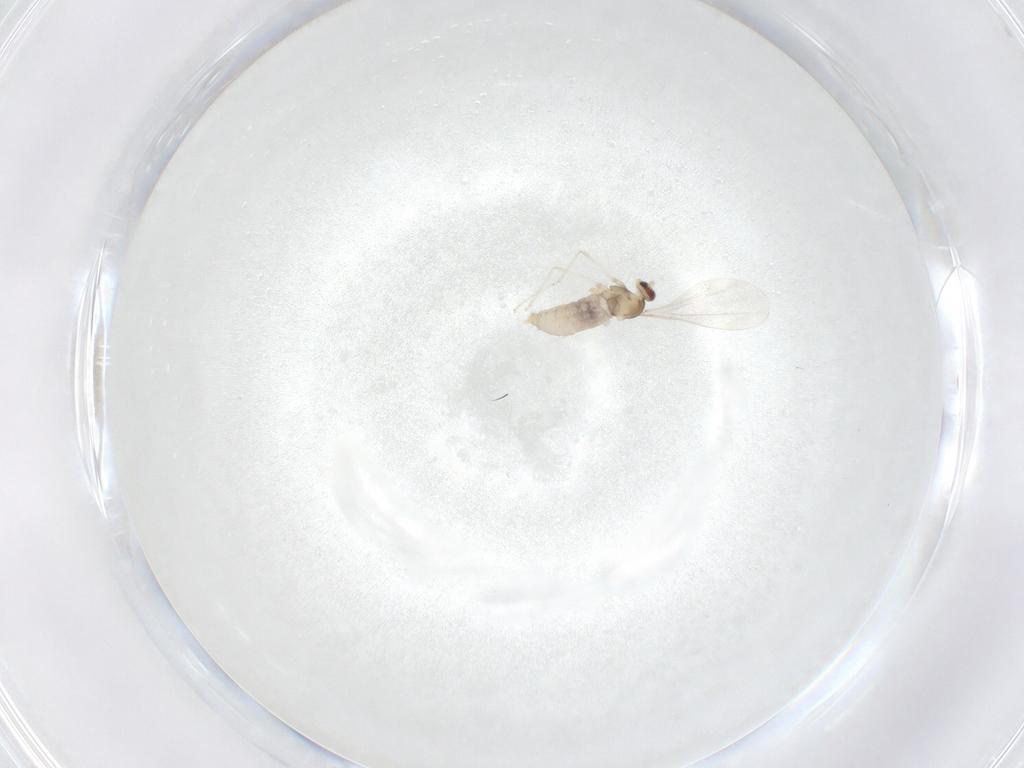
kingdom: Animalia
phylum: Arthropoda
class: Insecta
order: Diptera
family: Cecidomyiidae
